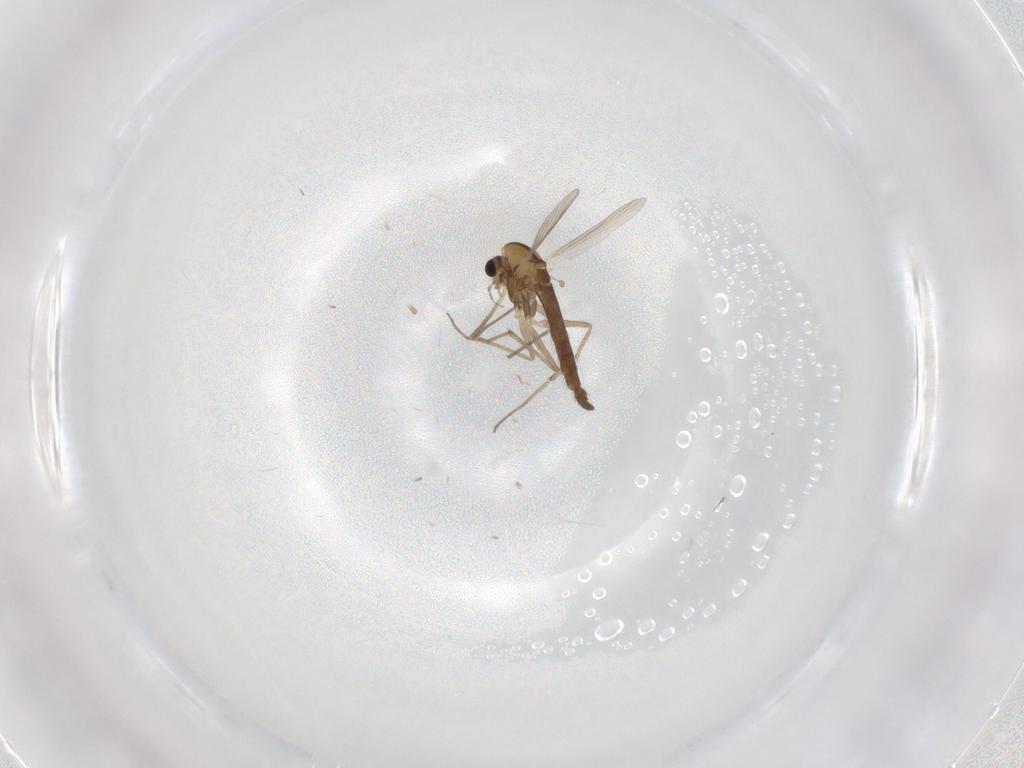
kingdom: Animalia
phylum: Arthropoda
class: Insecta
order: Diptera
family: Chironomidae
